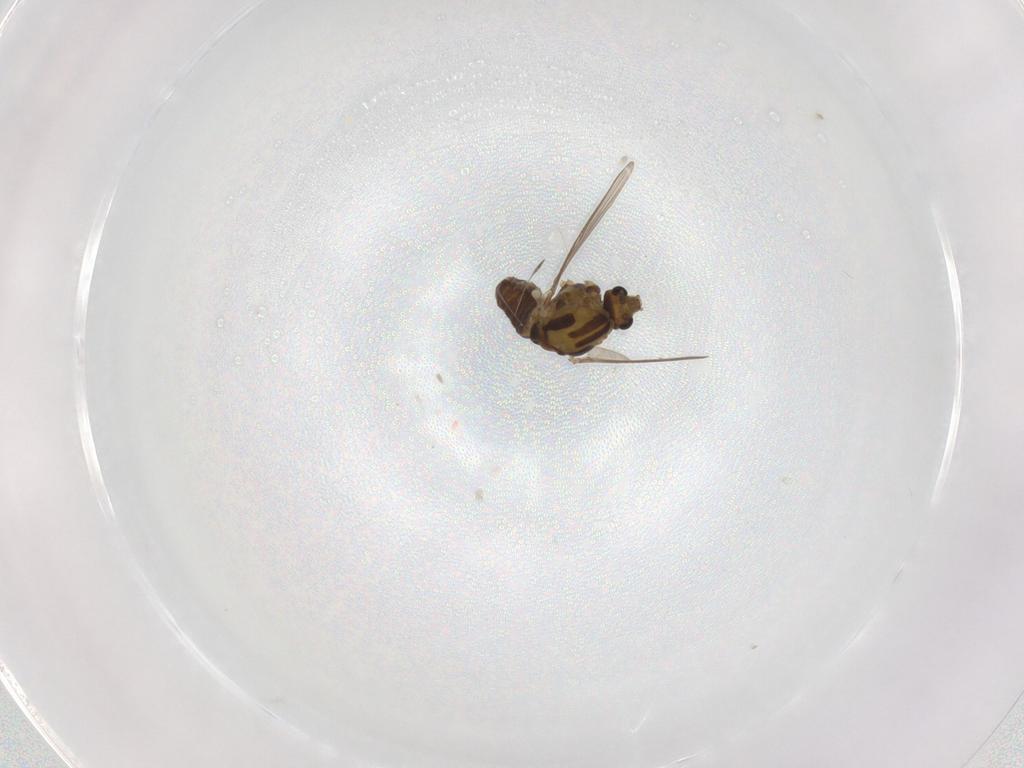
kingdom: Animalia
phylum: Arthropoda
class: Insecta
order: Diptera
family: Chironomidae
